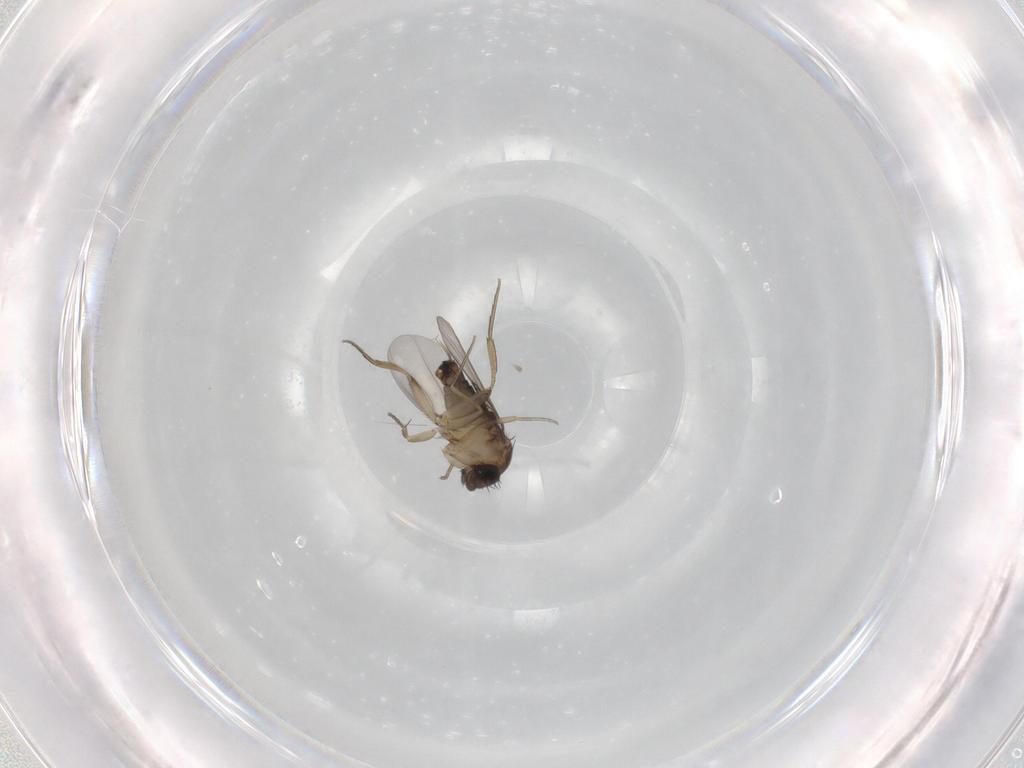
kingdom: Animalia
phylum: Arthropoda
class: Insecta
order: Diptera
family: Phoridae
